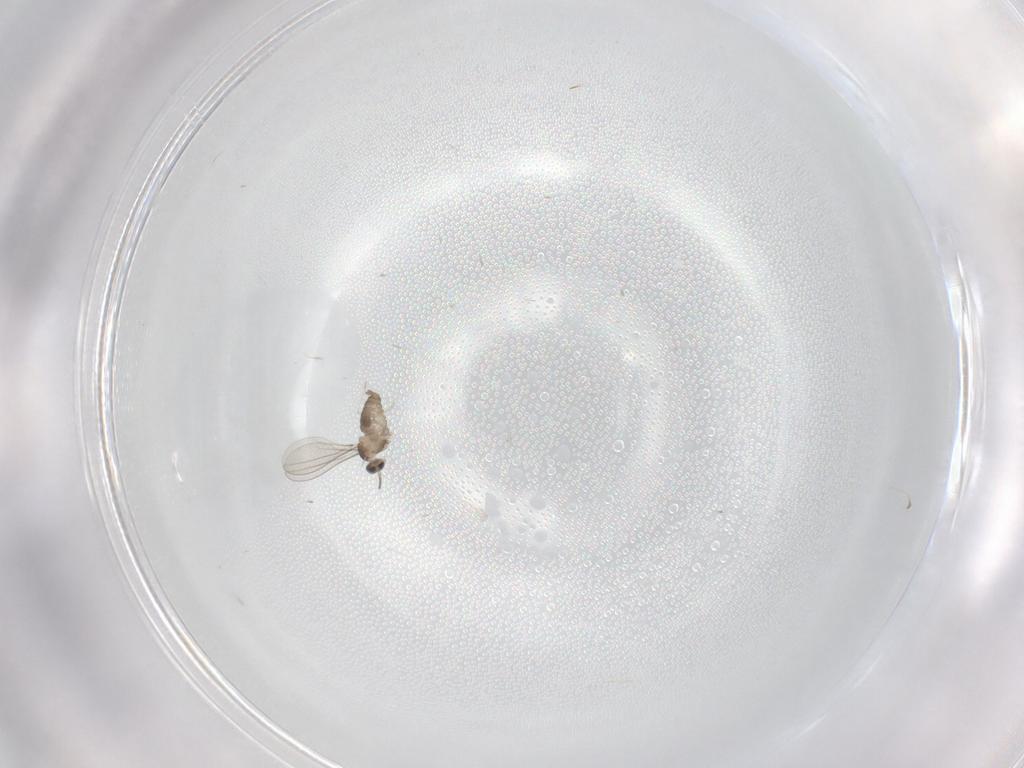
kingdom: Animalia
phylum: Arthropoda
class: Insecta
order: Diptera
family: Cecidomyiidae
